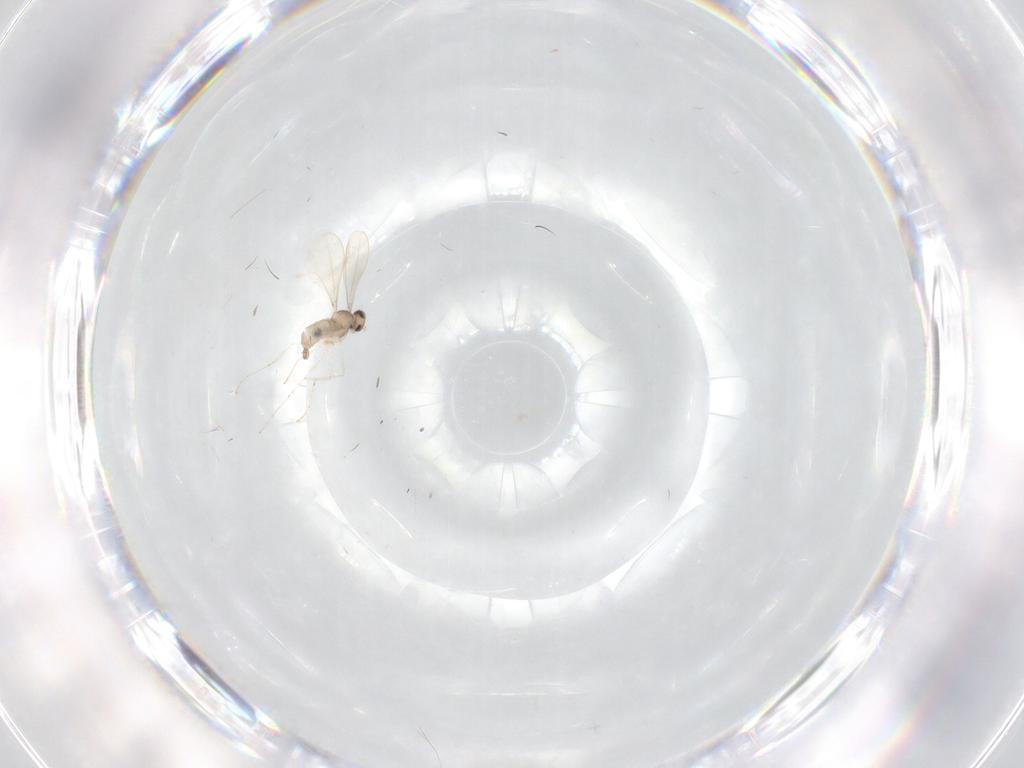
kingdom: Animalia
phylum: Arthropoda
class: Insecta
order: Diptera
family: Cecidomyiidae
